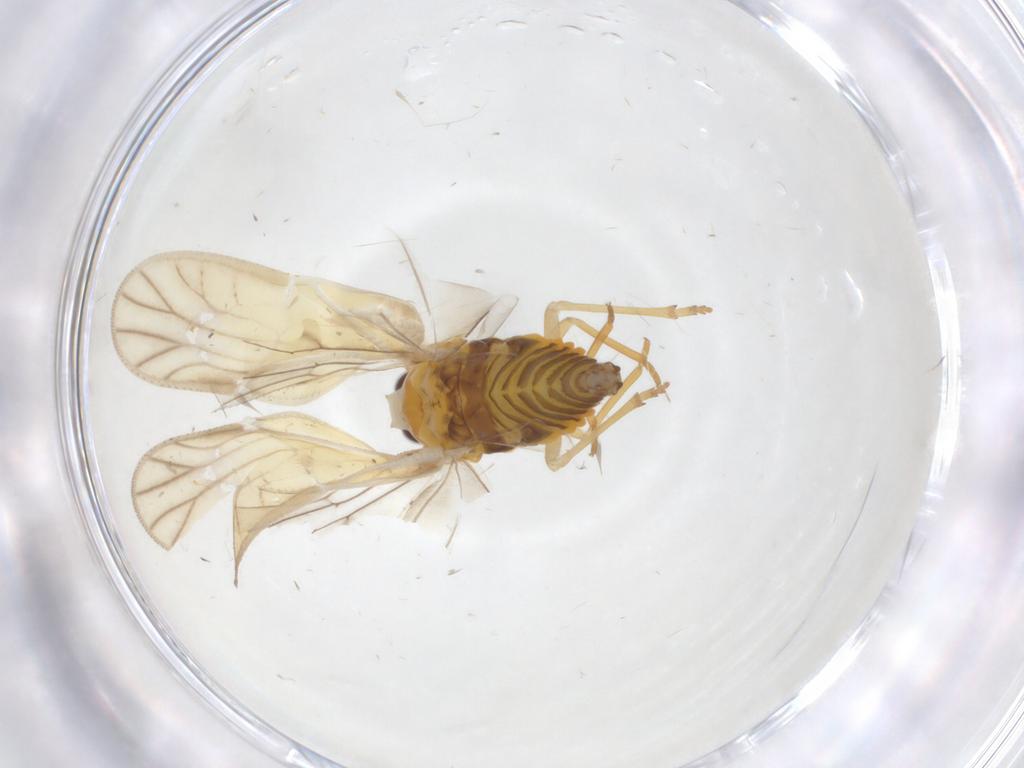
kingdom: Animalia
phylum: Arthropoda
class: Insecta
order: Hemiptera
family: Meenoplidae
